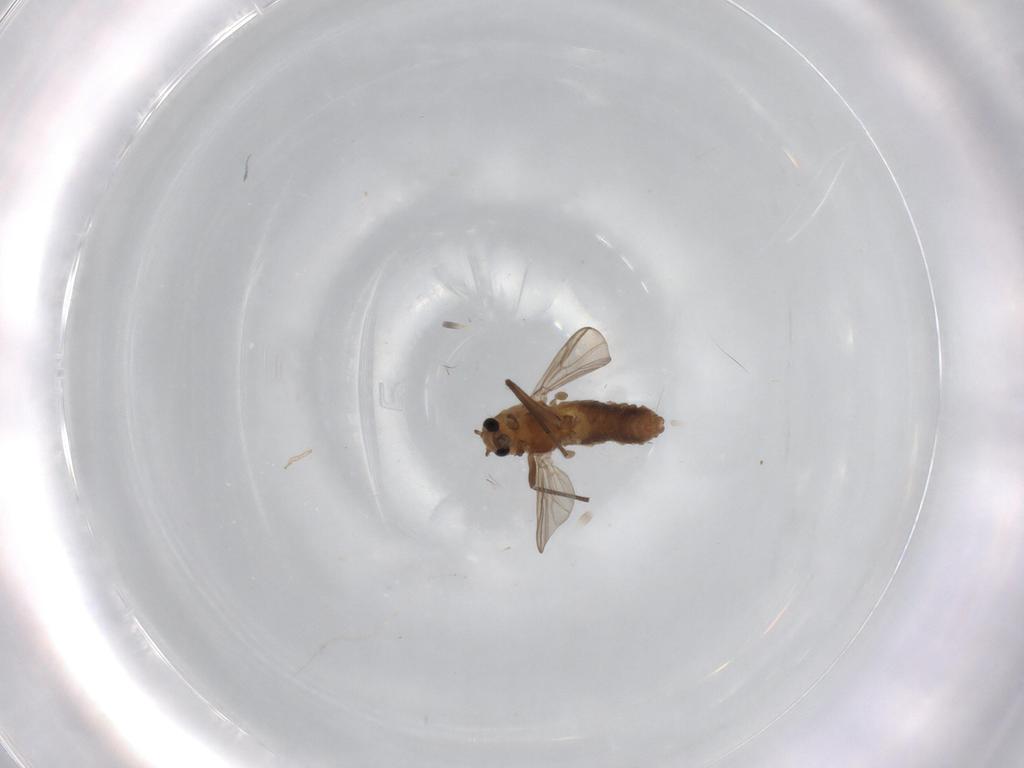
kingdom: Animalia
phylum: Arthropoda
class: Insecta
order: Diptera
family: Chironomidae
